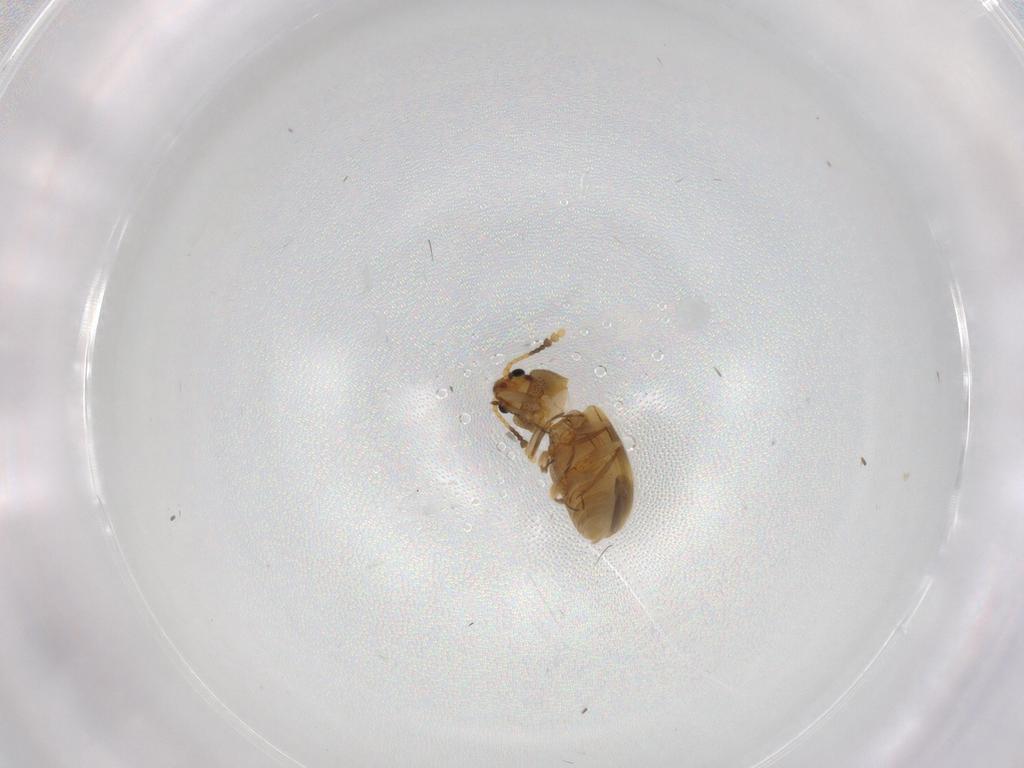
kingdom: Animalia
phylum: Arthropoda
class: Insecta
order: Coleoptera
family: Erotylidae
